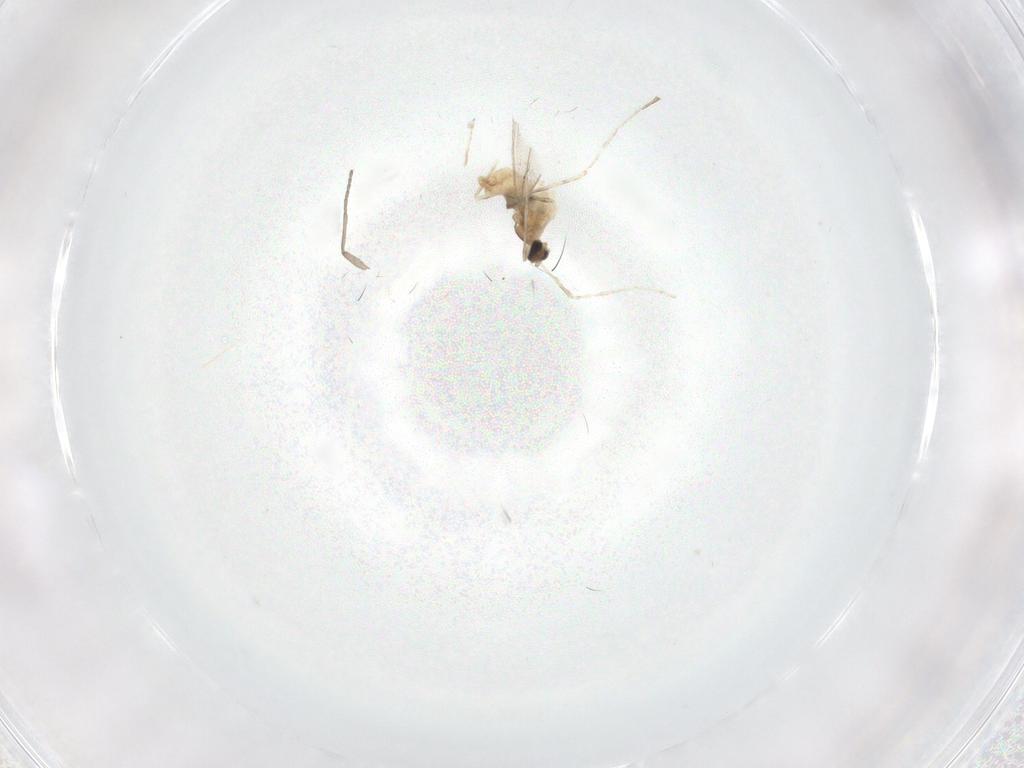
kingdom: Animalia
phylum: Arthropoda
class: Insecta
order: Diptera
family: Cecidomyiidae
